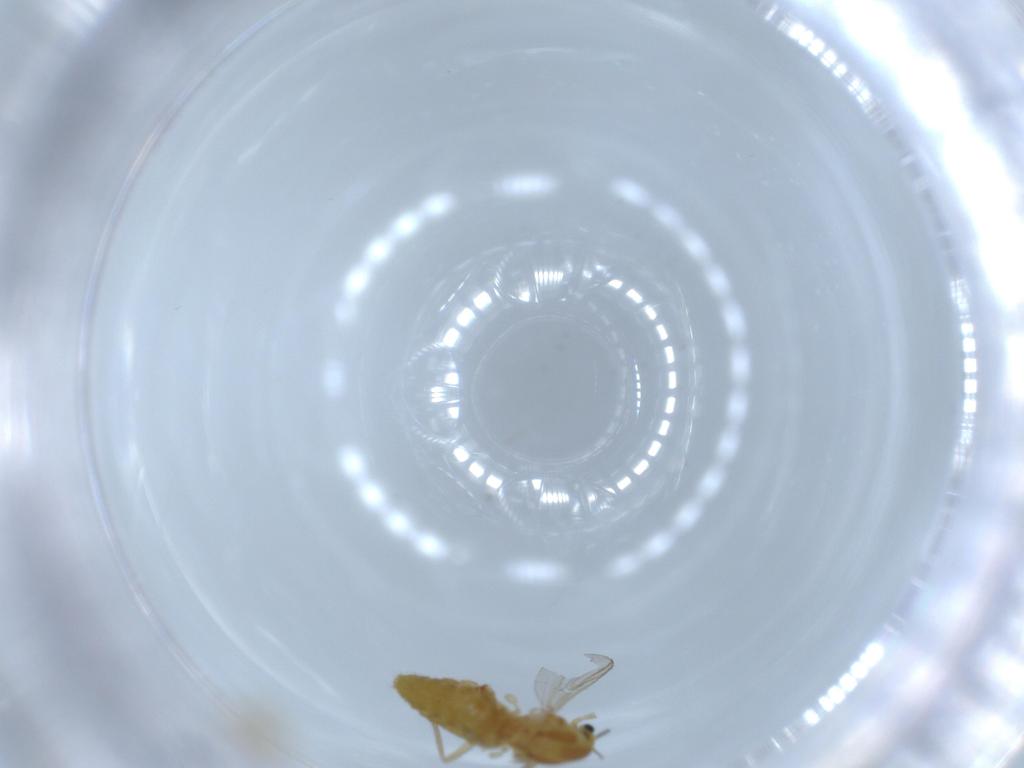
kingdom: Animalia
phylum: Arthropoda
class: Insecta
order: Diptera
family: Chironomidae
